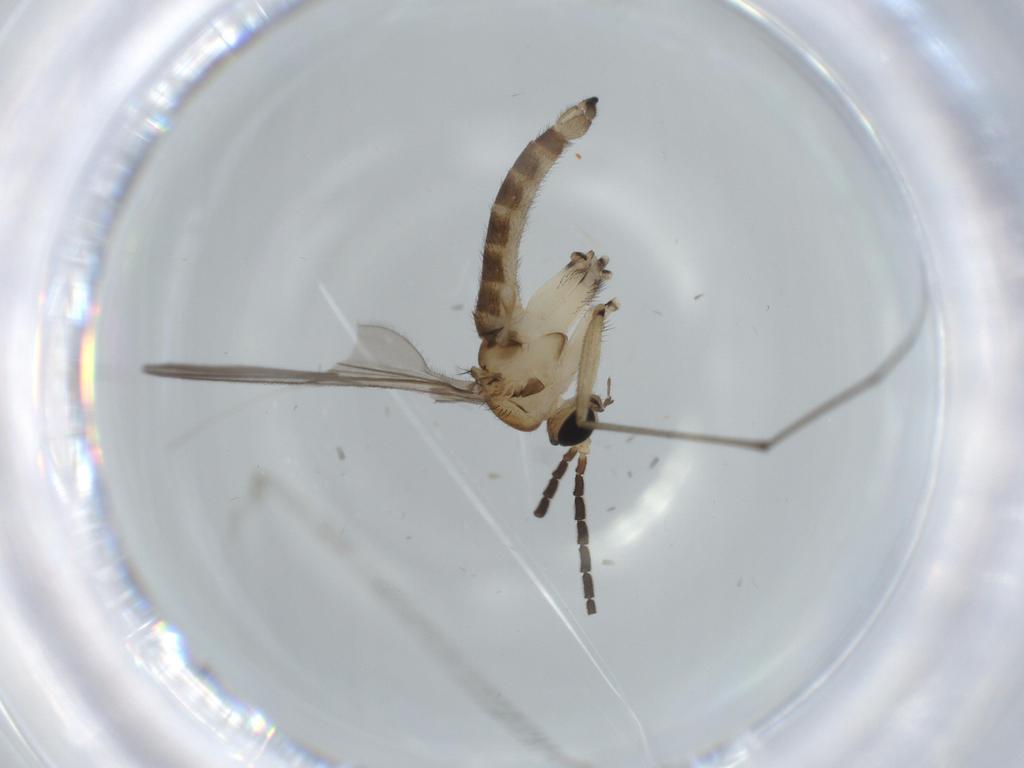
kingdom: Animalia
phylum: Arthropoda
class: Insecta
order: Diptera
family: Sciaridae
